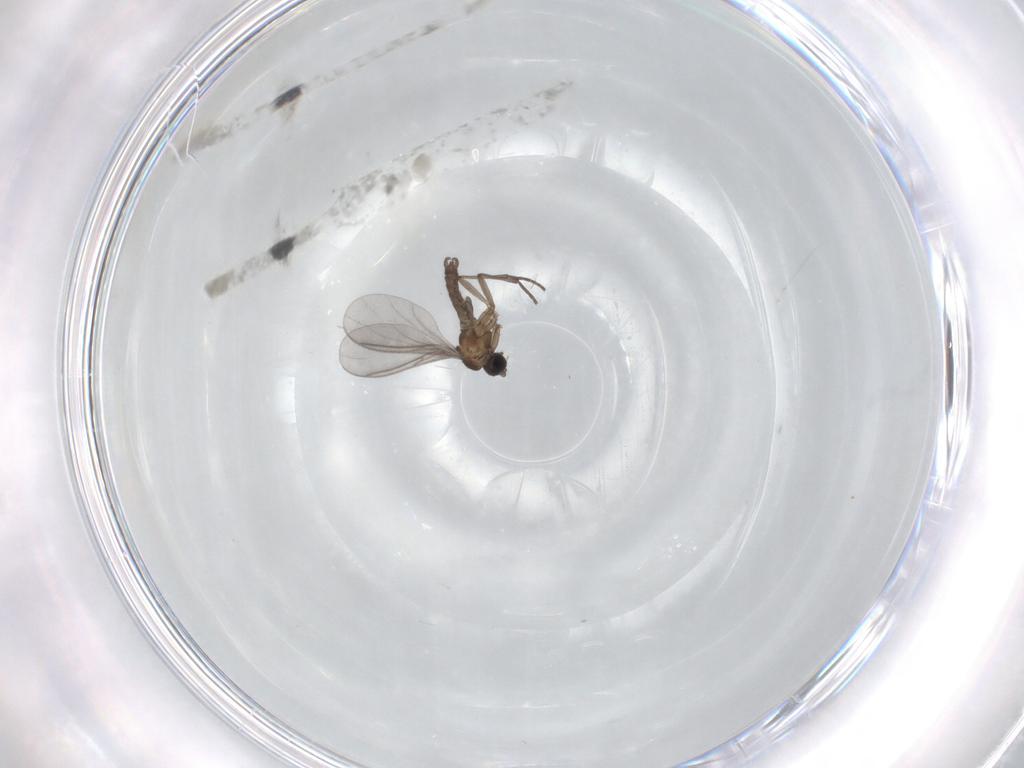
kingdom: Animalia
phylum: Arthropoda
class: Insecta
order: Diptera
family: Sciaridae
